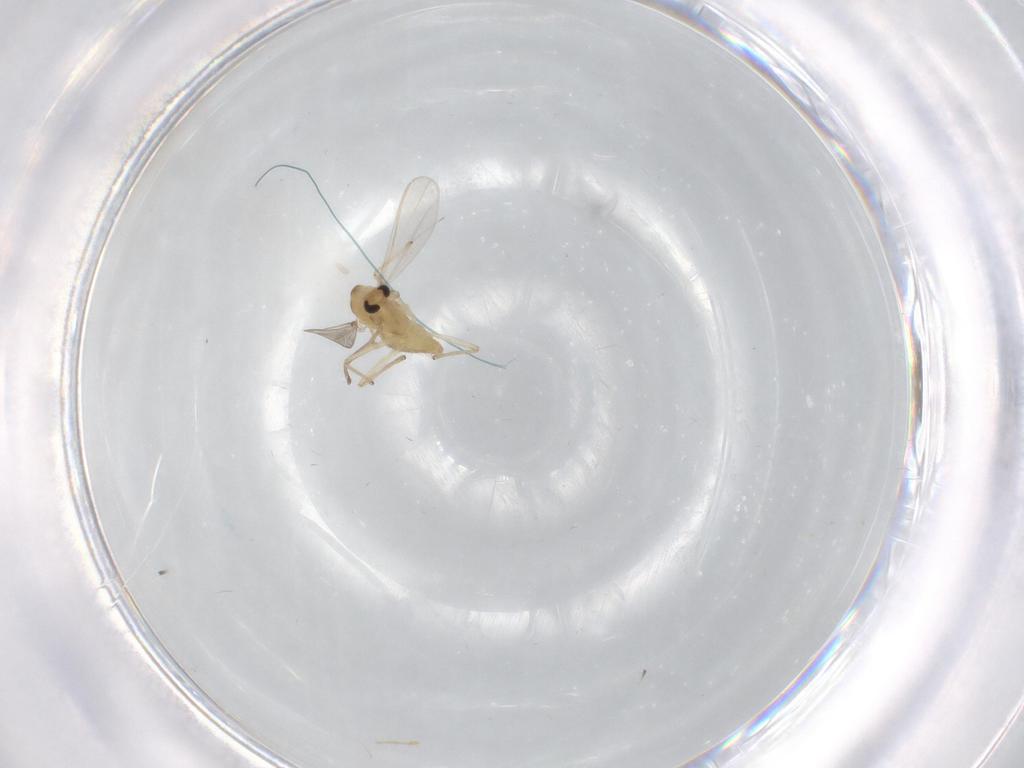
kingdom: Animalia
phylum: Arthropoda
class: Insecta
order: Diptera
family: Chironomidae
